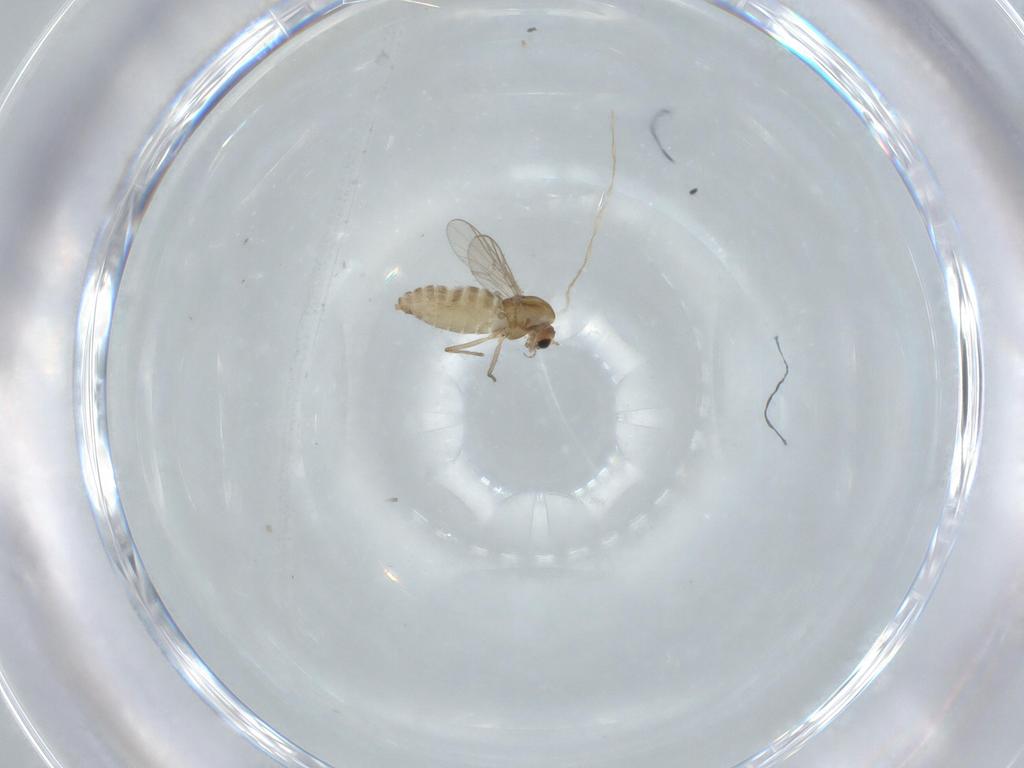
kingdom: Animalia
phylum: Arthropoda
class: Insecta
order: Diptera
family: Chironomidae
